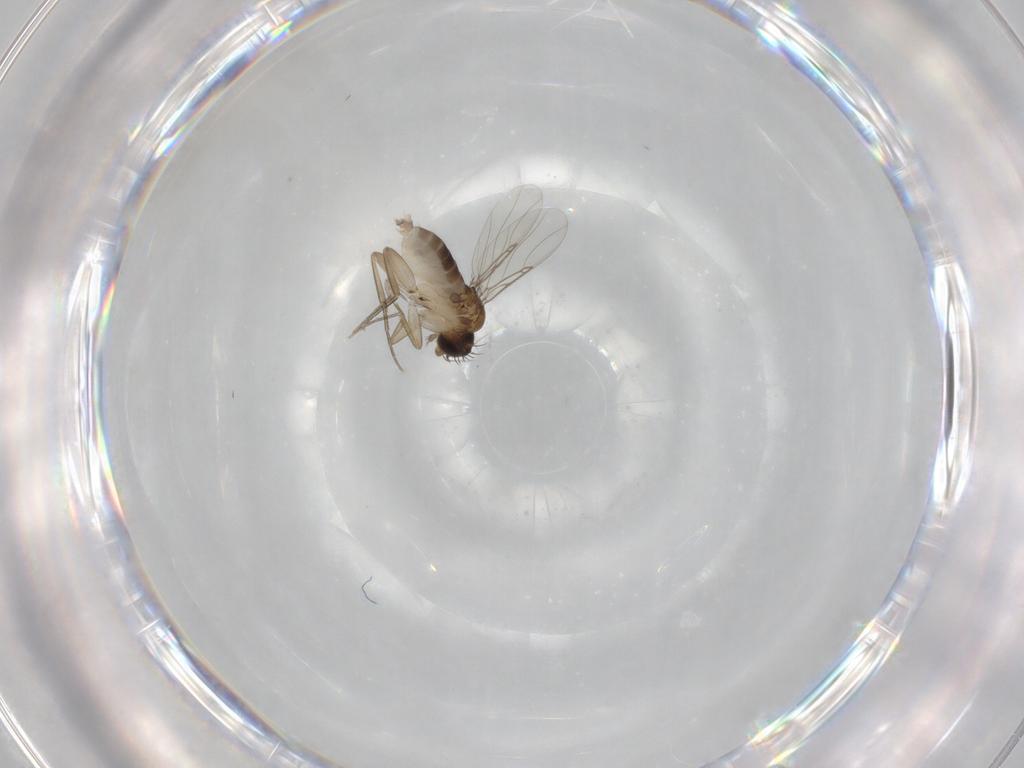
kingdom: Animalia
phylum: Arthropoda
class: Insecta
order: Diptera
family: Phoridae
